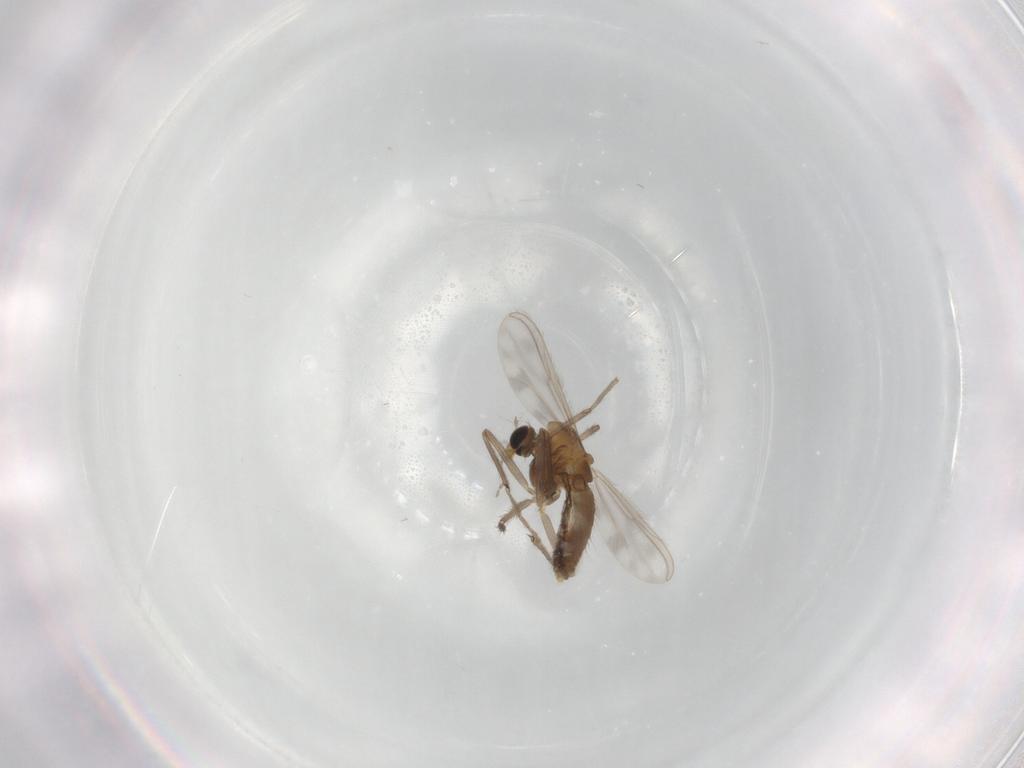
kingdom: Animalia
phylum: Arthropoda
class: Insecta
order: Diptera
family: Chironomidae
